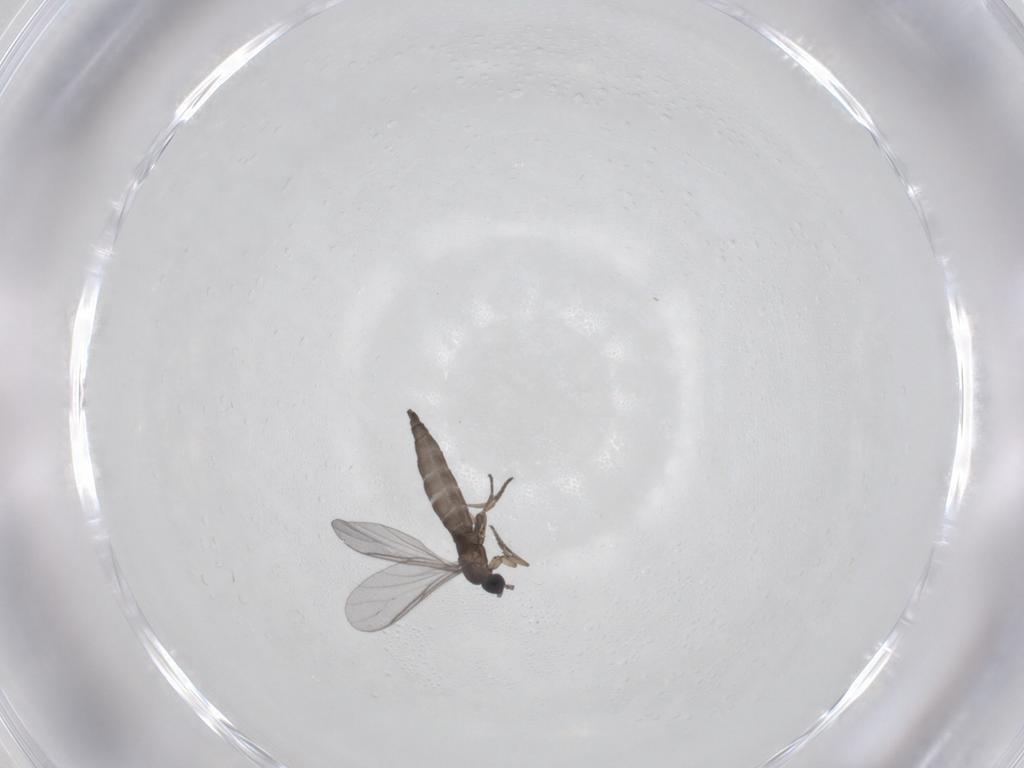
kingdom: Animalia
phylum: Arthropoda
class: Insecta
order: Diptera
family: Sciaridae
